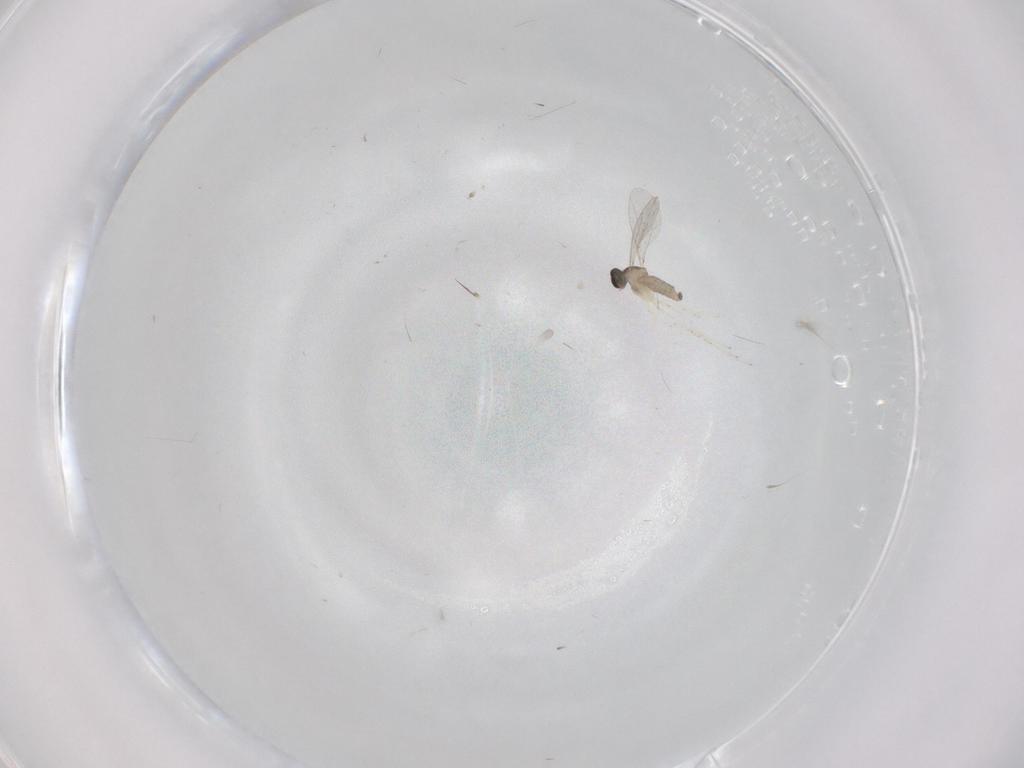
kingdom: Animalia
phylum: Arthropoda
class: Insecta
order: Diptera
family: Cecidomyiidae
